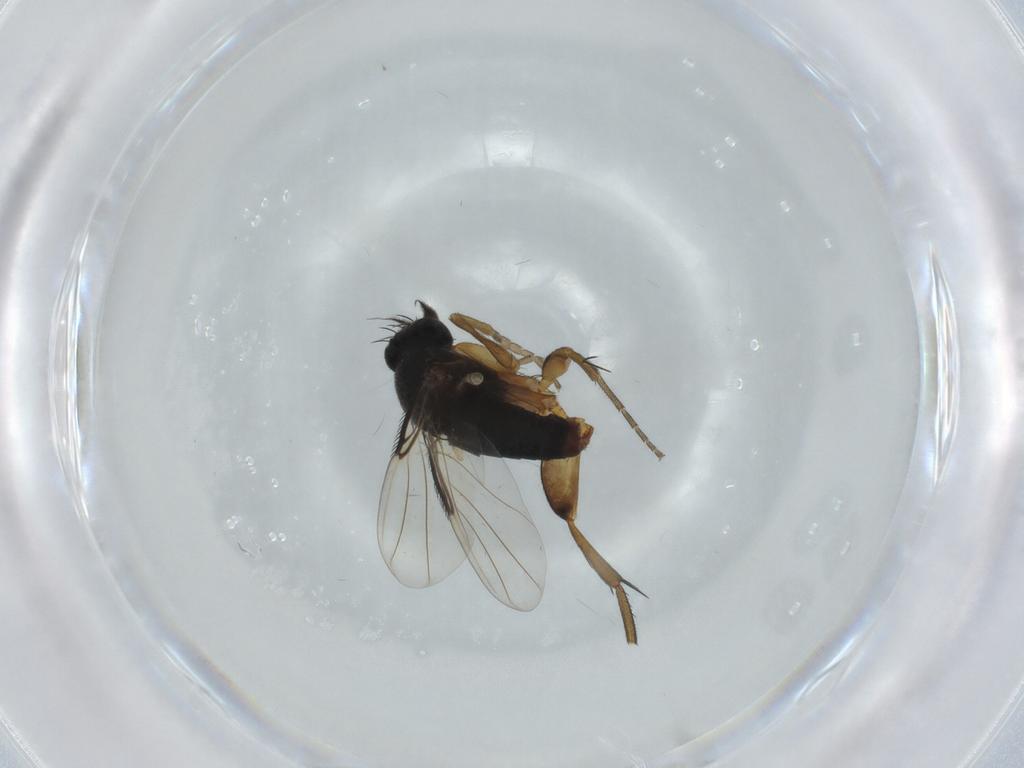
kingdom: Animalia
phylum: Arthropoda
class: Insecta
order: Diptera
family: Phoridae
